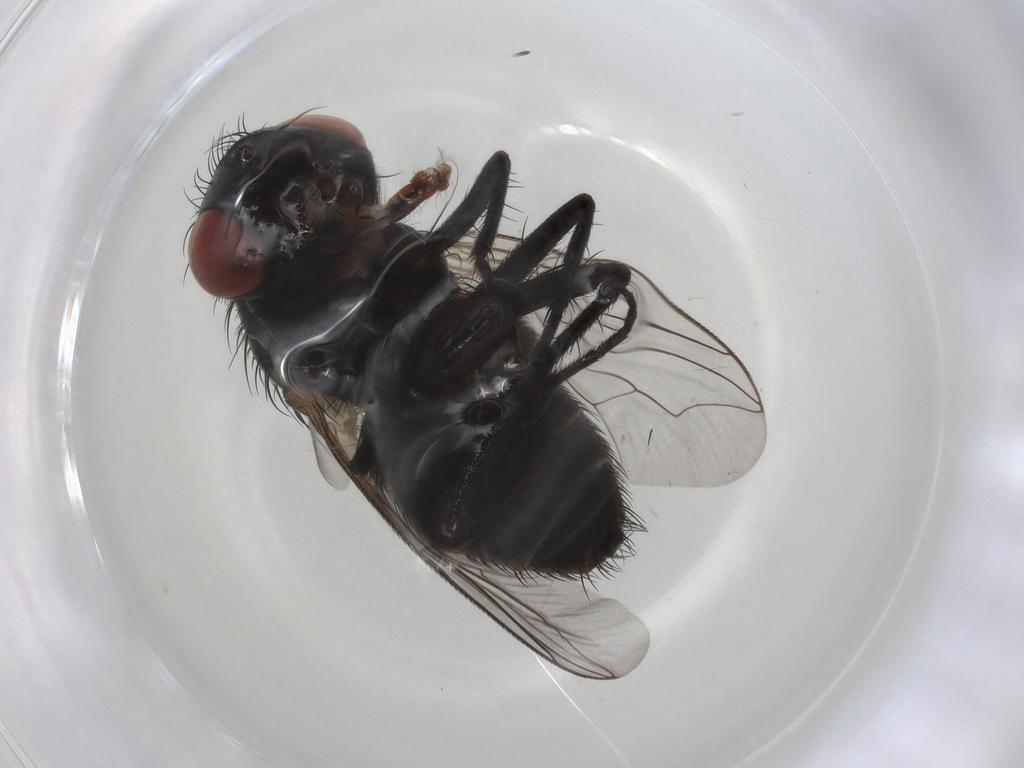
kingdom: Animalia
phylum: Arthropoda
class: Insecta
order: Diptera
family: Sarcophagidae
